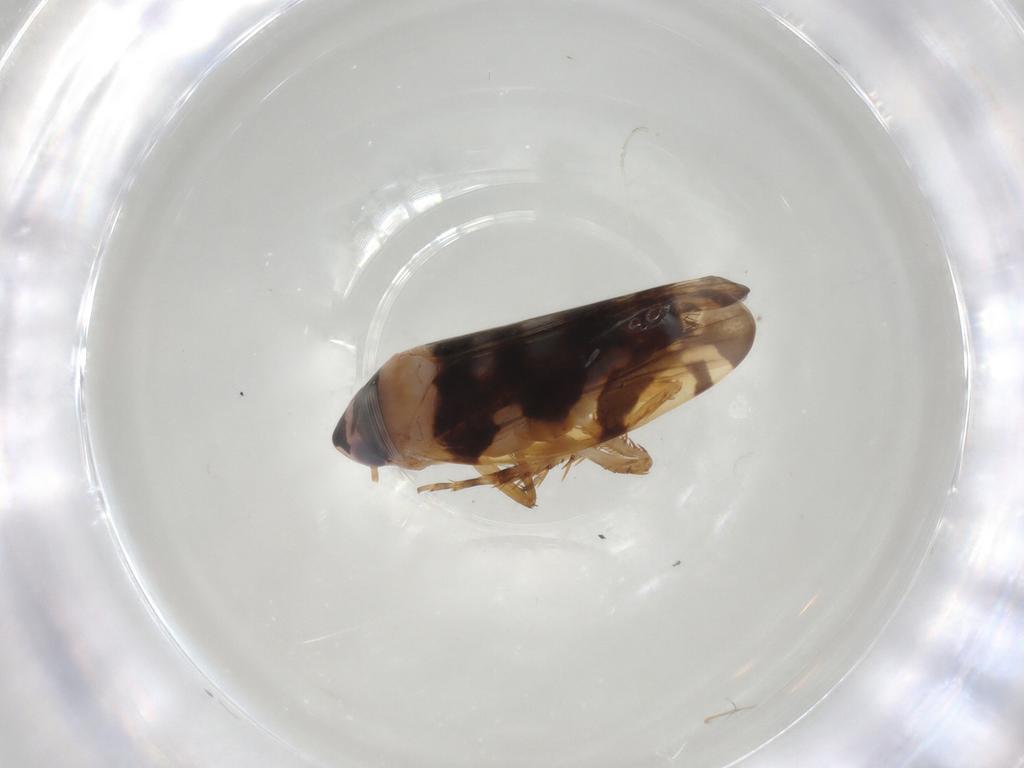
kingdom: Animalia
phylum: Arthropoda
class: Insecta
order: Hemiptera
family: Cicadellidae
